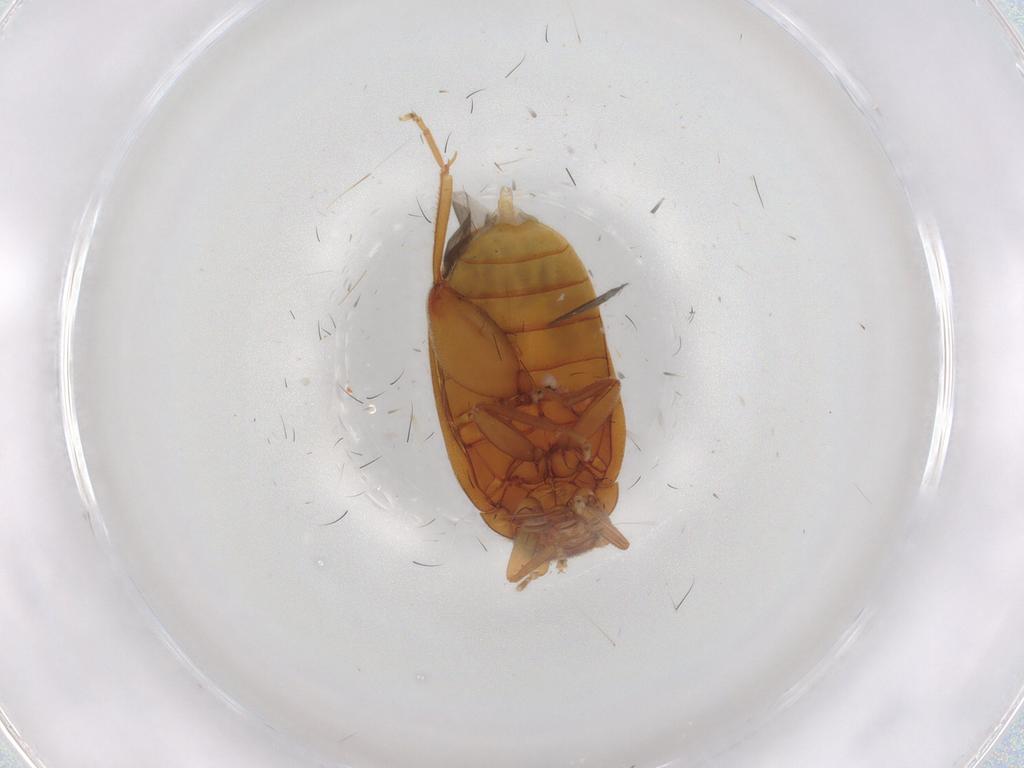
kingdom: Animalia
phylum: Arthropoda
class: Insecta
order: Coleoptera
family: Scirtidae
